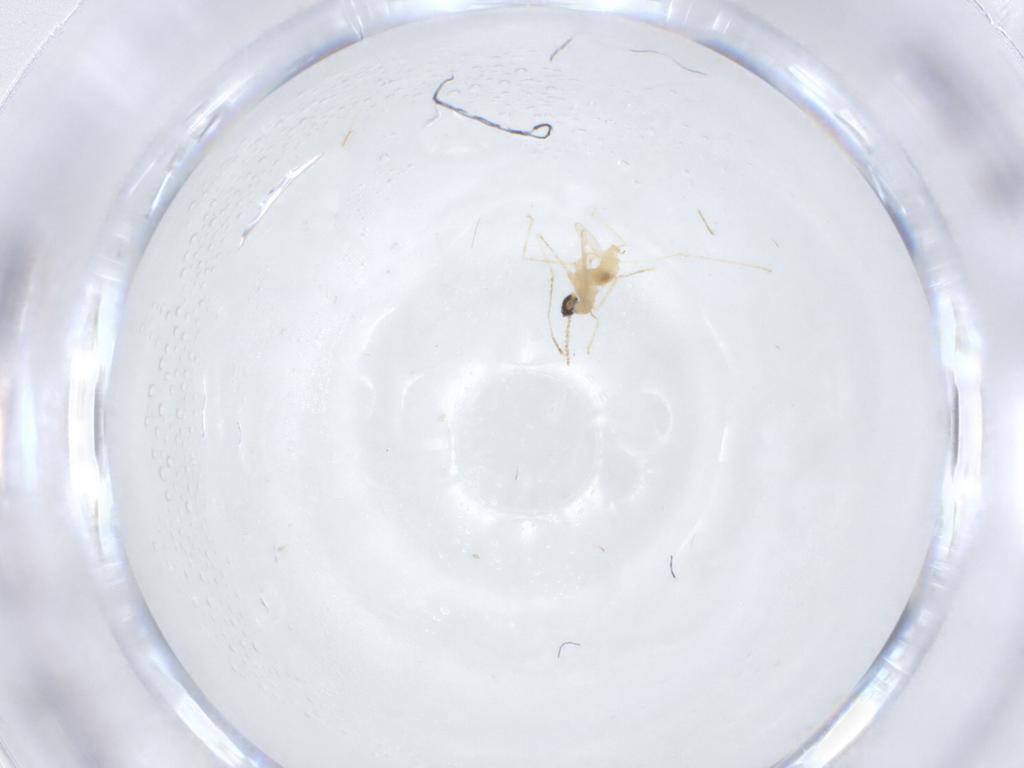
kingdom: Animalia
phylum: Arthropoda
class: Insecta
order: Diptera
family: Cecidomyiidae
